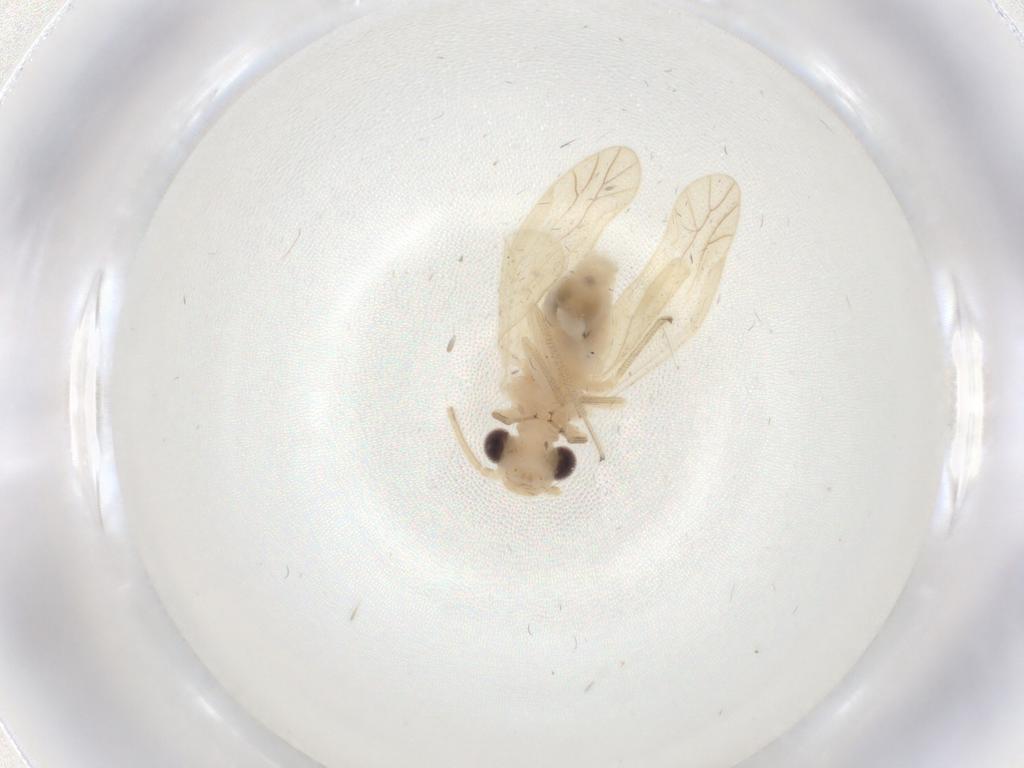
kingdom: Animalia
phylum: Arthropoda
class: Insecta
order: Psocodea
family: Caeciliusidae
